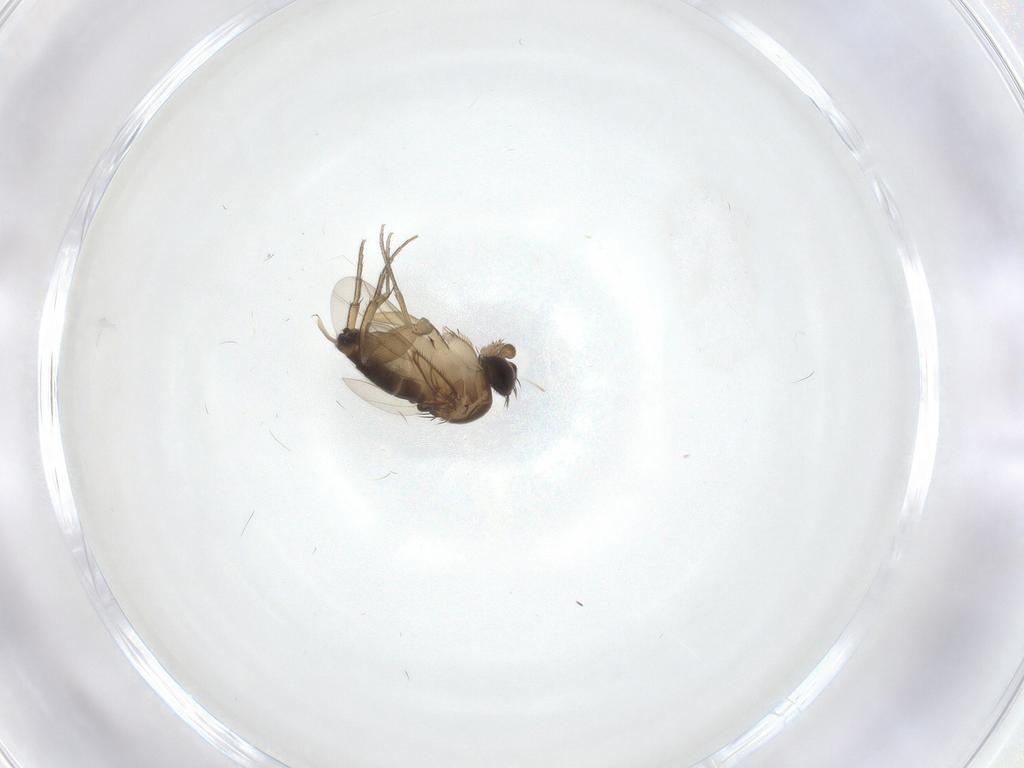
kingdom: Animalia
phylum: Arthropoda
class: Insecta
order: Diptera
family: Phoridae
